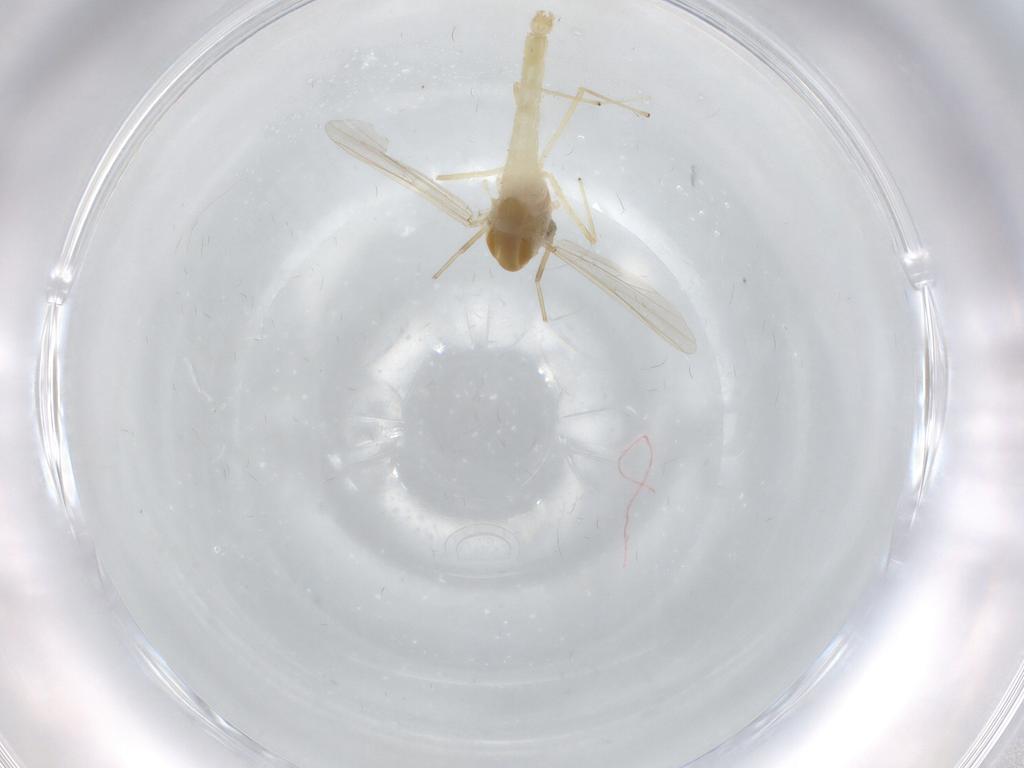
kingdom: Animalia
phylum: Arthropoda
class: Insecta
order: Diptera
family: Chironomidae
